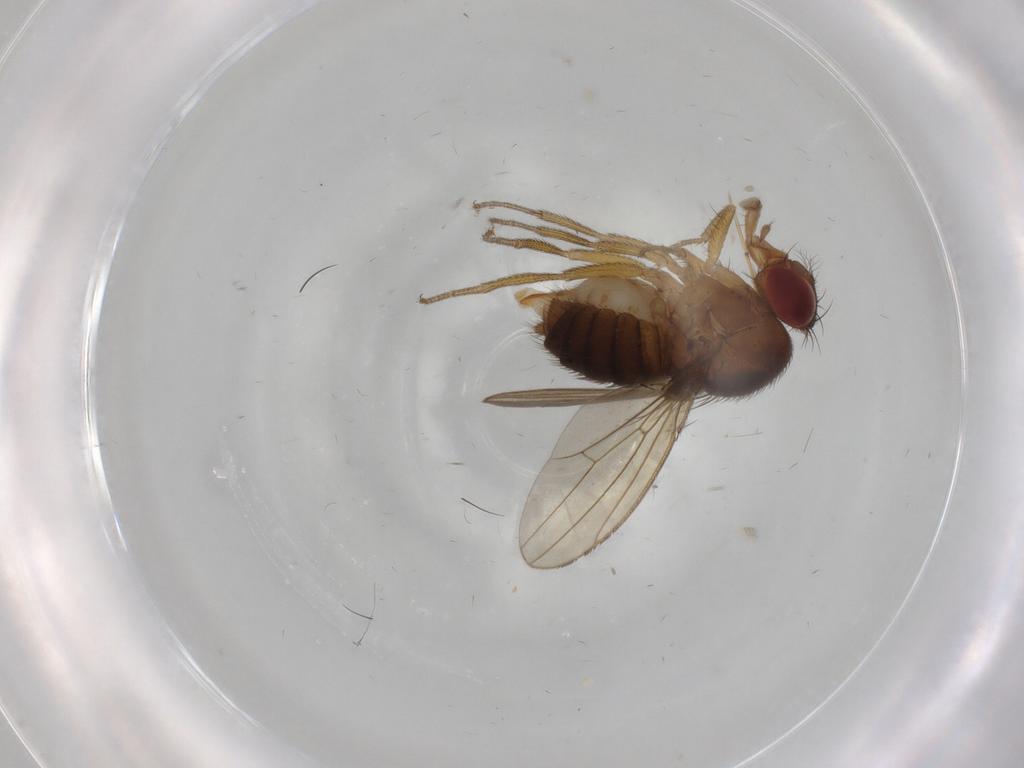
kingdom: Animalia
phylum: Arthropoda
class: Insecta
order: Diptera
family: Drosophilidae
